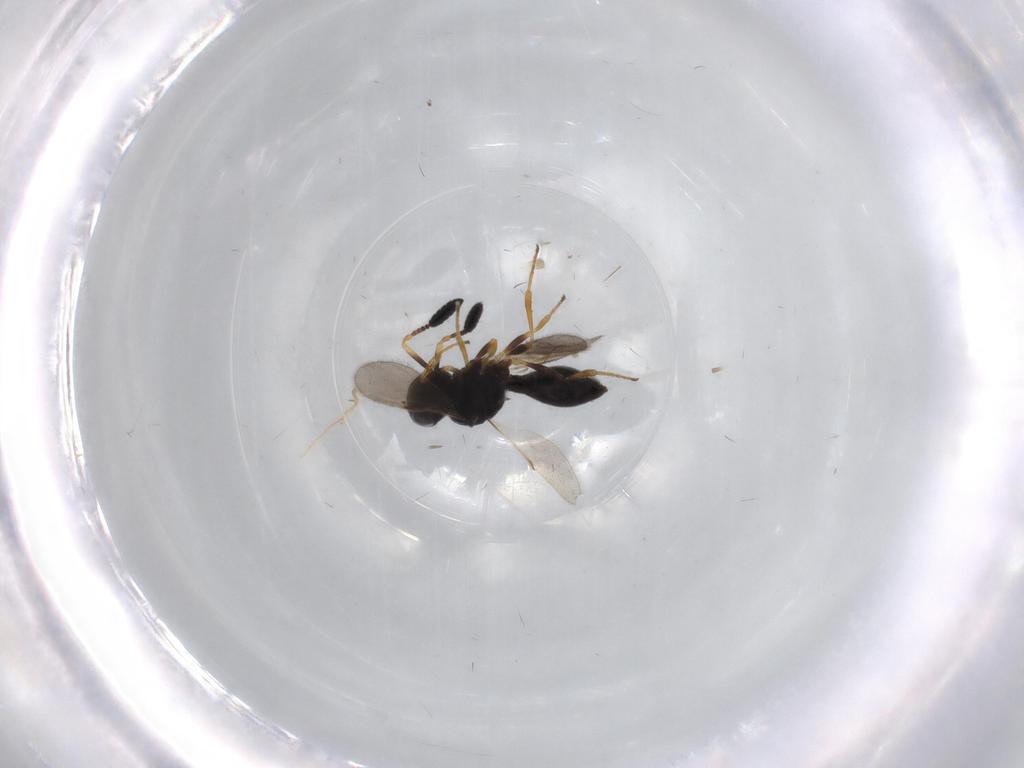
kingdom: Animalia
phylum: Arthropoda
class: Insecta
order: Hymenoptera
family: Scelionidae
